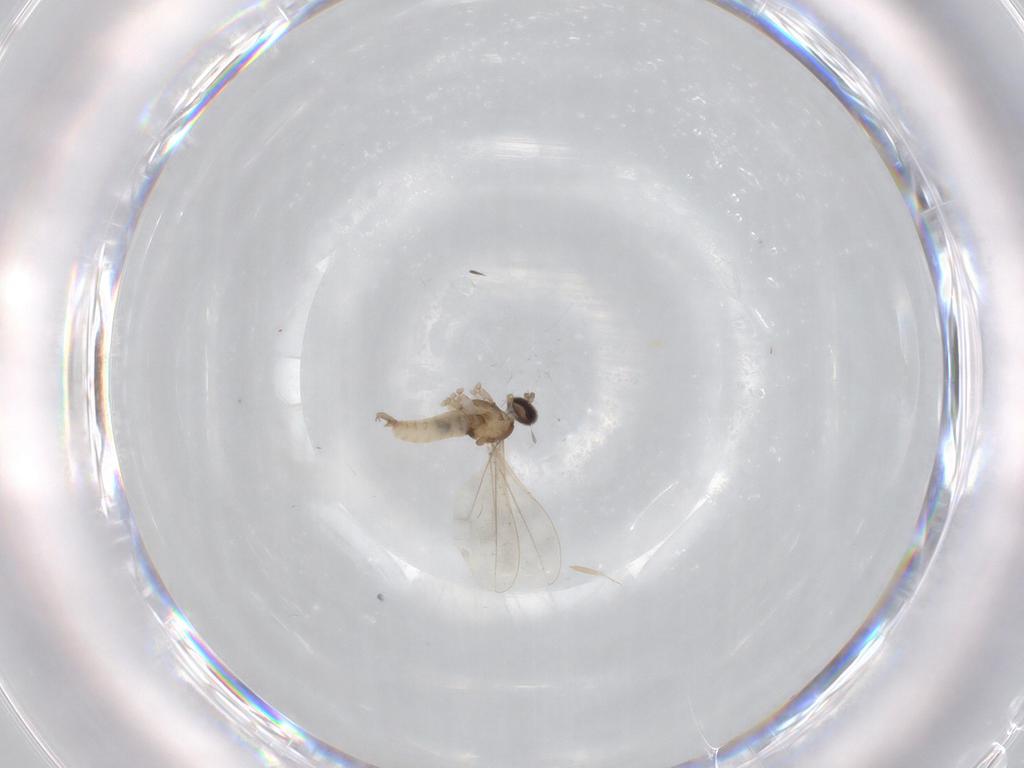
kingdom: Animalia
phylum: Arthropoda
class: Insecta
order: Diptera
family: Cecidomyiidae
